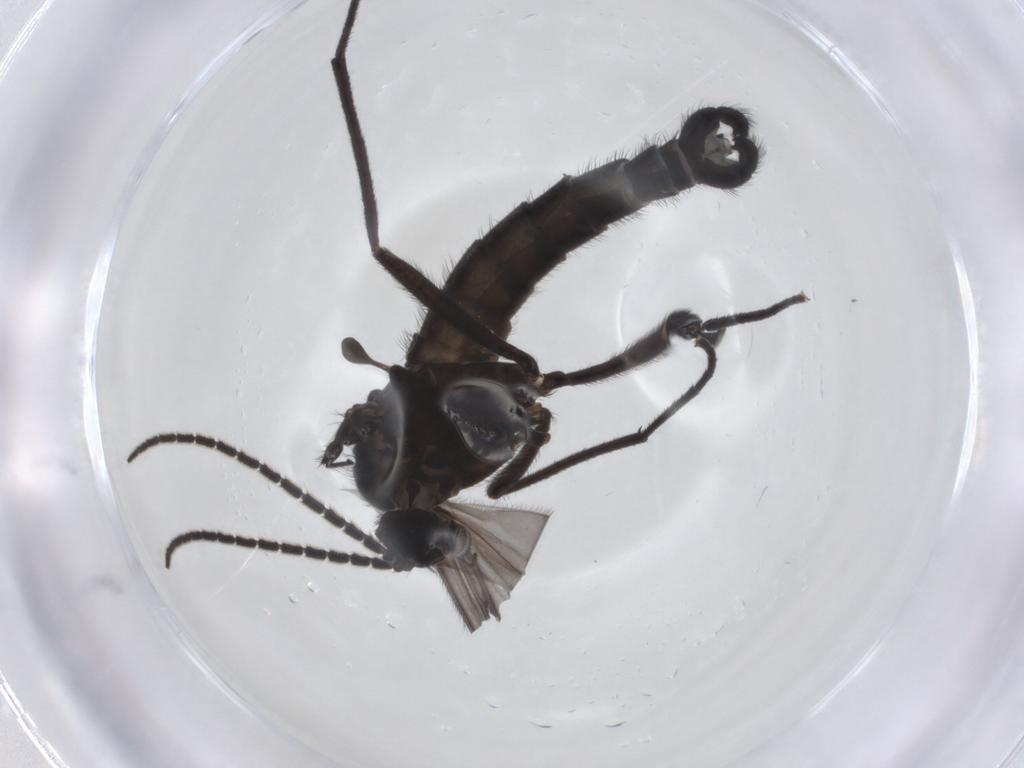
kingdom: Animalia
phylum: Arthropoda
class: Insecta
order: Diptera
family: Sciaridae
